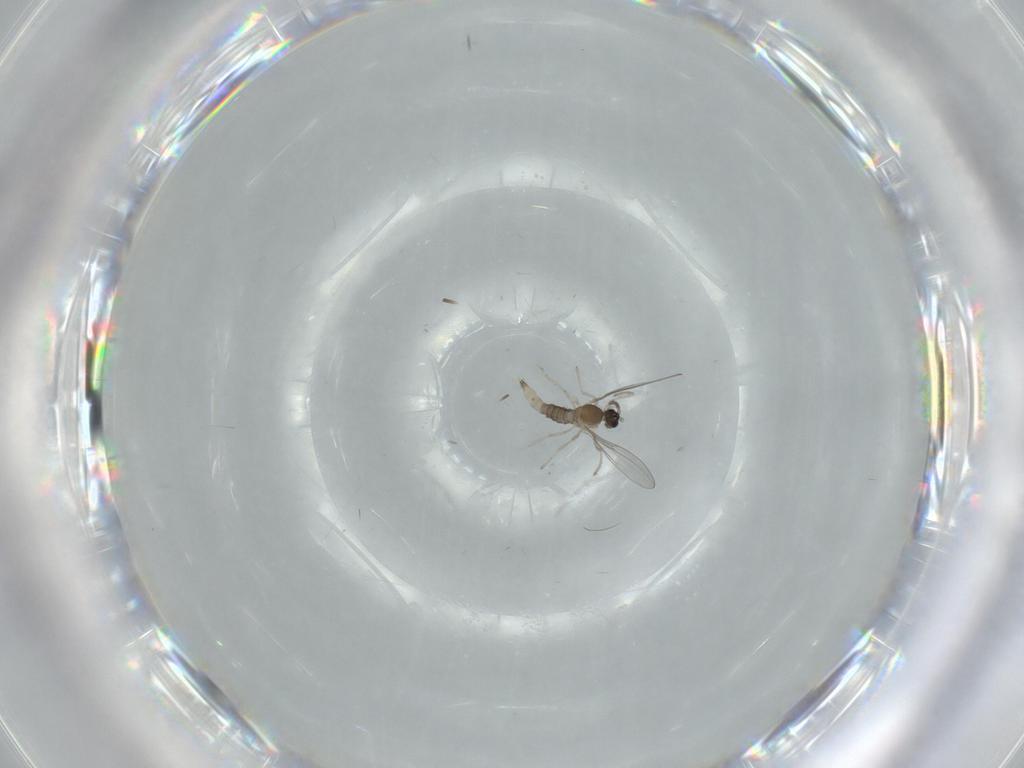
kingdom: Animalia
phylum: Arthropoda
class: Insecta
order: Diptera
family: Cecidomyiidae
